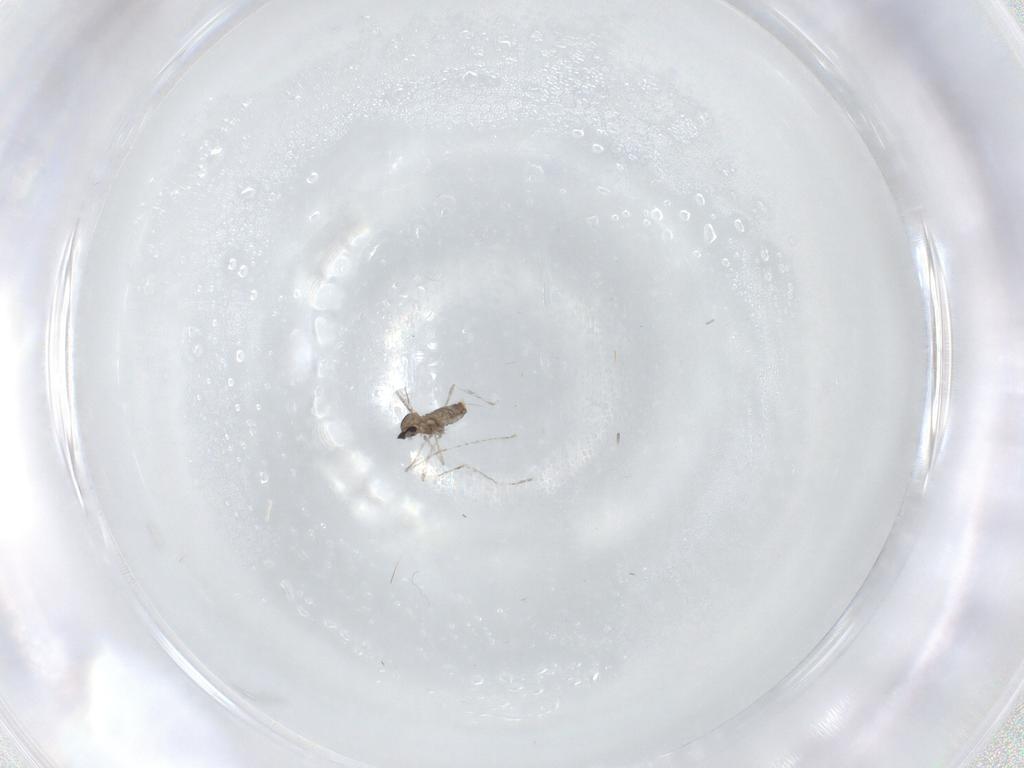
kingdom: Animalia
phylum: Arthropoda
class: Insecta
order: Diptera
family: Cecidomyiidae
